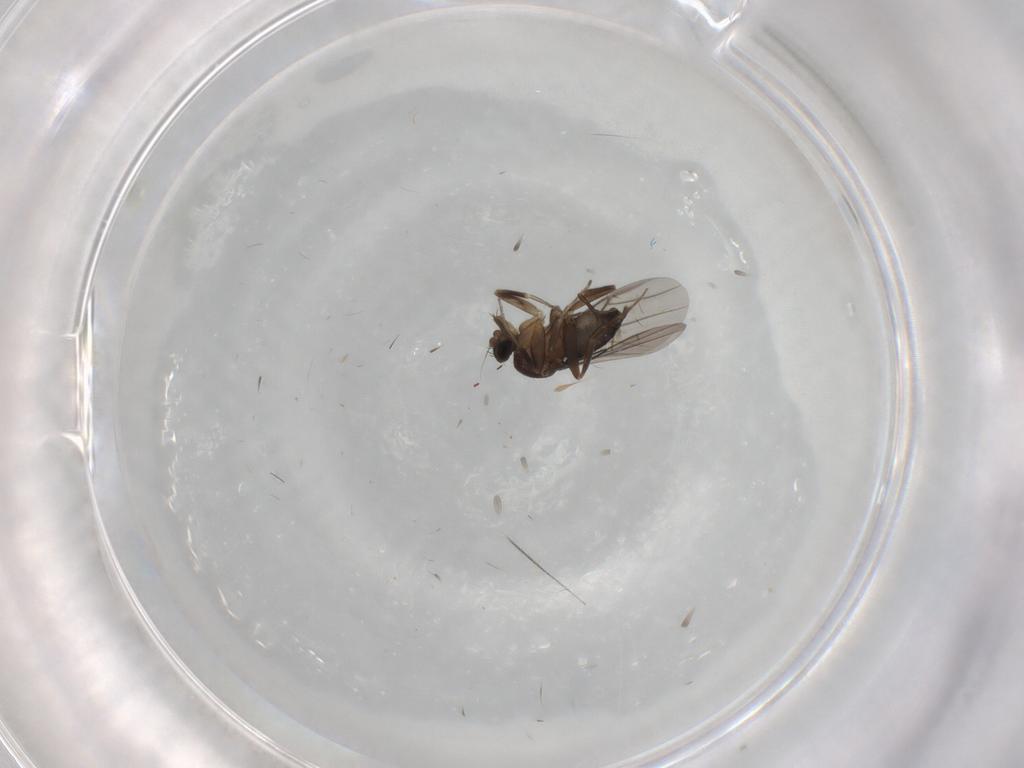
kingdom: Animalia
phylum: Arthropoda
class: Insecta
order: Diptera
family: Phoridae
